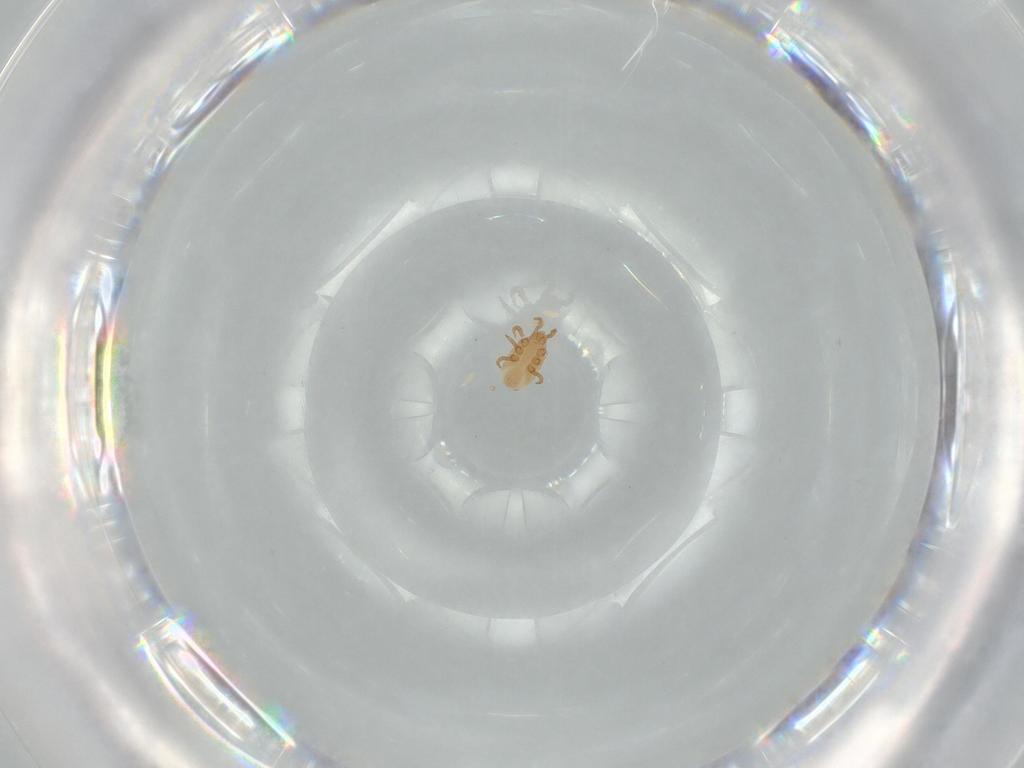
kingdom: Animalia
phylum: Arthropoda
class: Arachnida
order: Mesostigmata
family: Dinychidae
